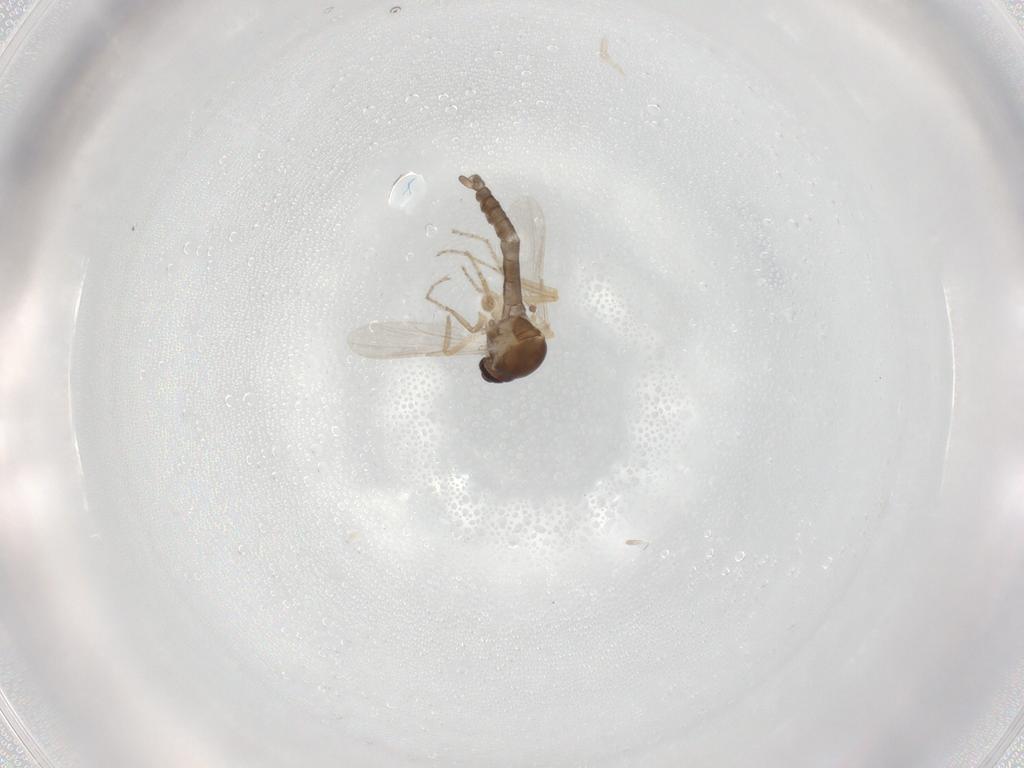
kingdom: Animalia
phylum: Arthropoda
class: Insecta
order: Diptera
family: Ceratopogonidae
